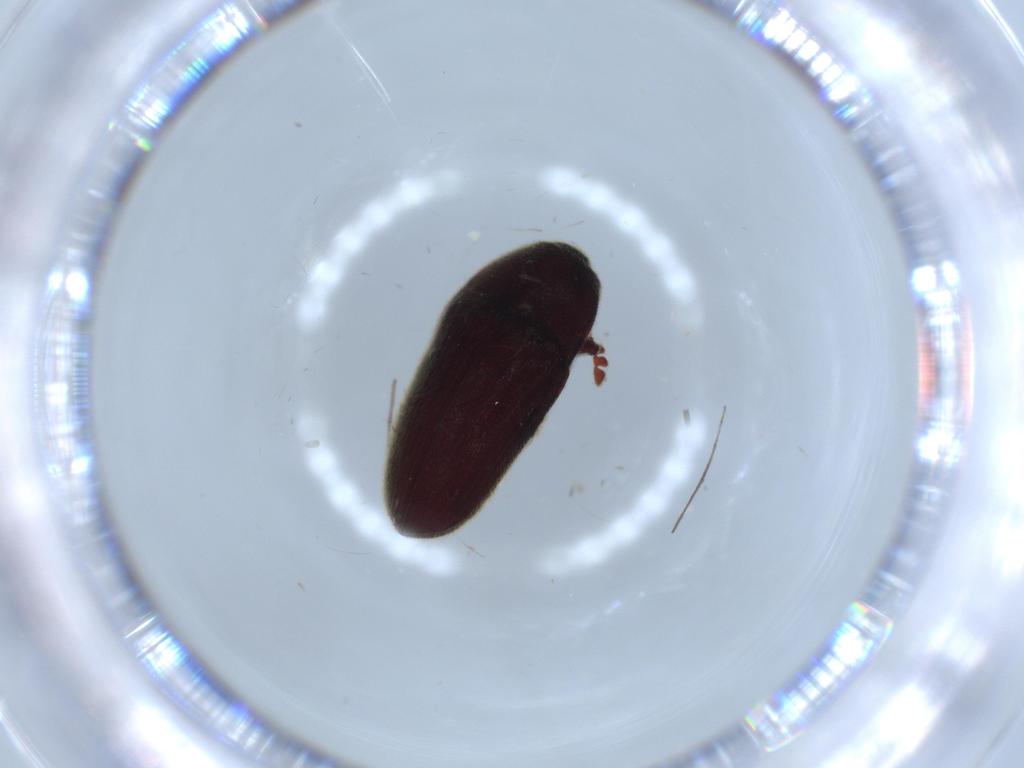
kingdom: Animalia
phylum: Arthropoda
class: Insecta
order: Coleoptera
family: Throscidae
